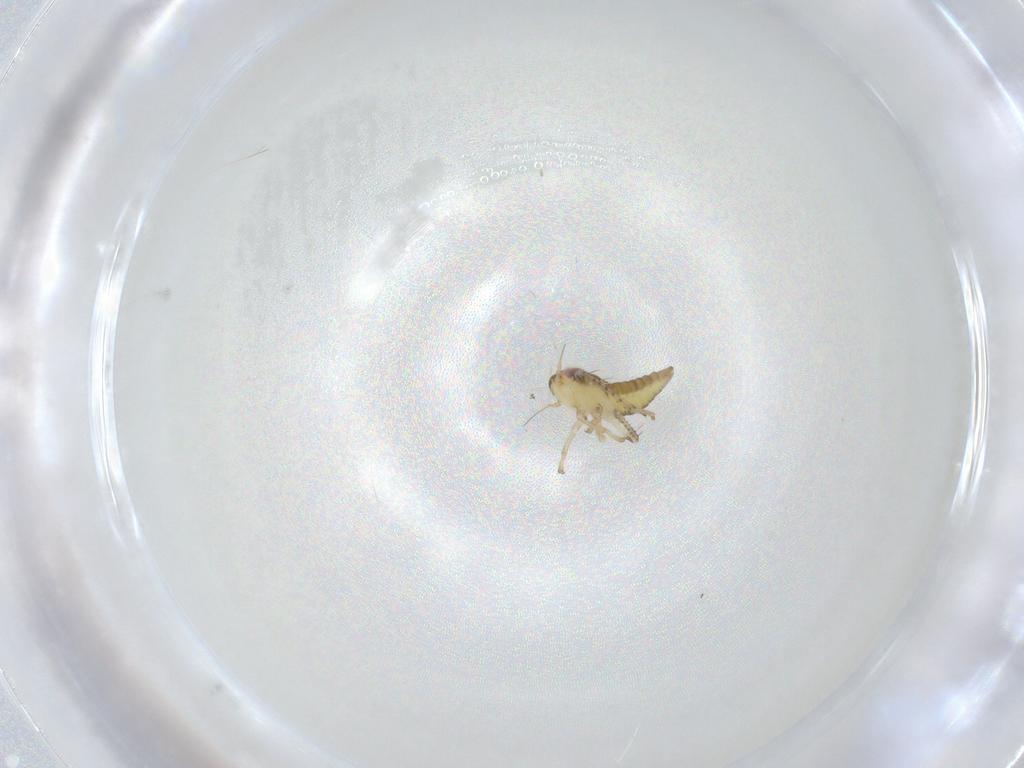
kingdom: Animalia
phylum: Arthropoda
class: Insecta
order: Hemiptera
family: Cicadellidae
